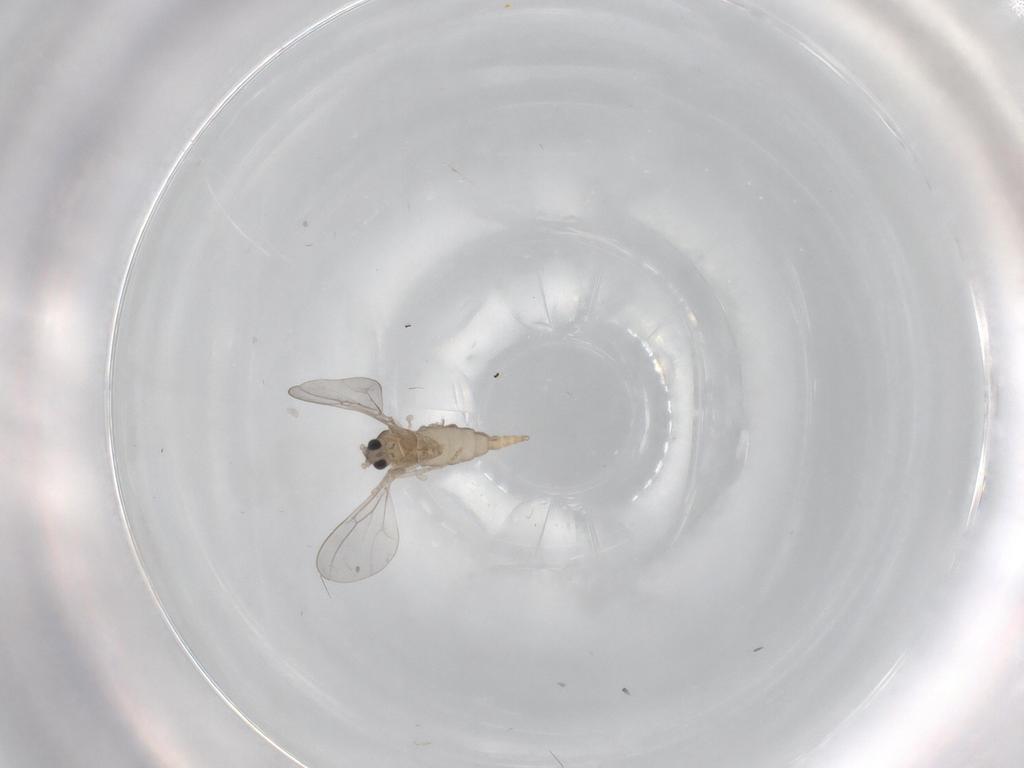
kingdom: Animalia
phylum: Arthropoda
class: Insecta
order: Diptera
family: Cecidomyiidae
